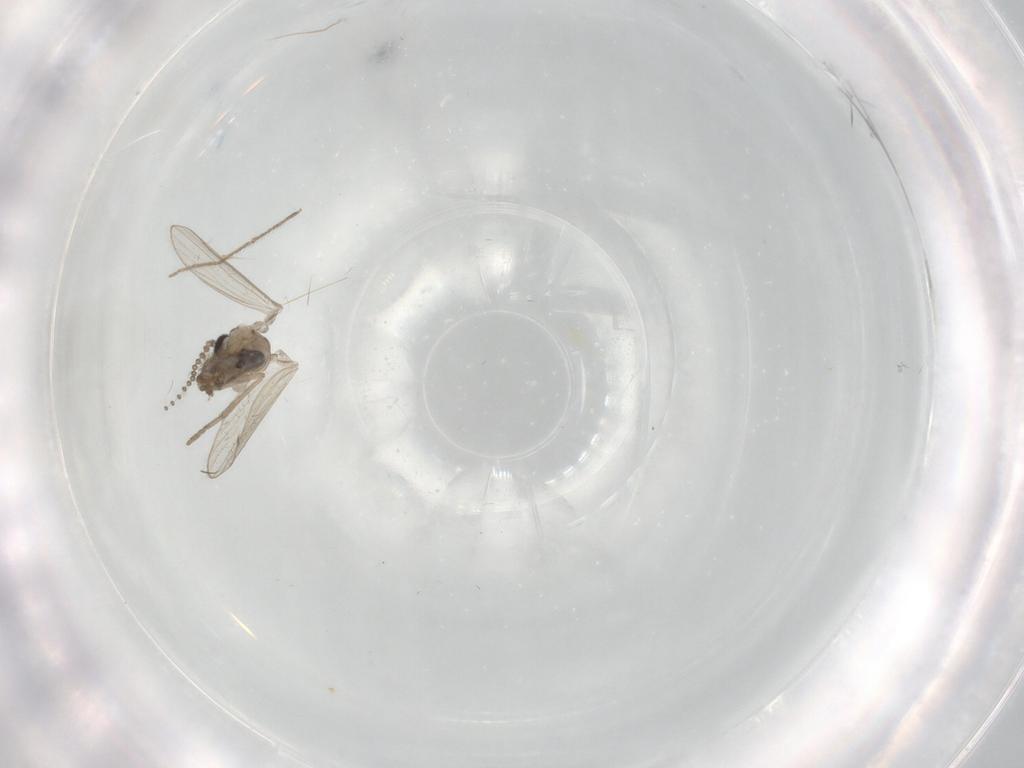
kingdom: Animalia
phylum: Arthropoda
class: Insecta
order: Diptera
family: Psychodidae
